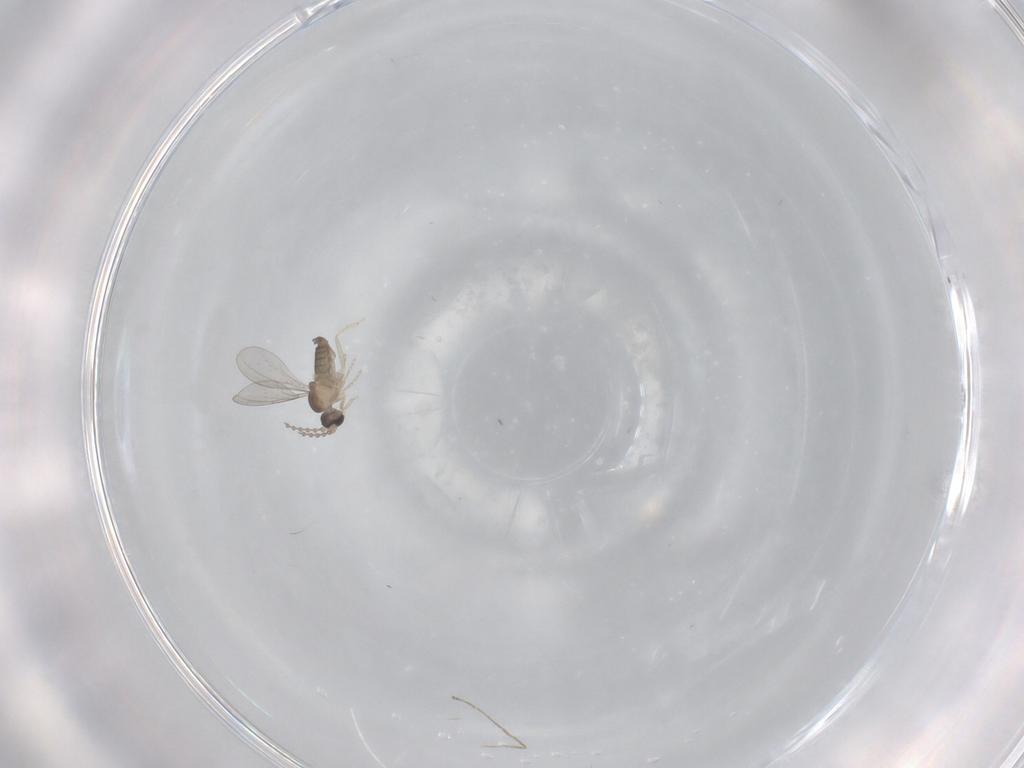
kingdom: Animalia
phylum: Arthropoda
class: Insecta
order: Diptera
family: Cecidomyiidae
